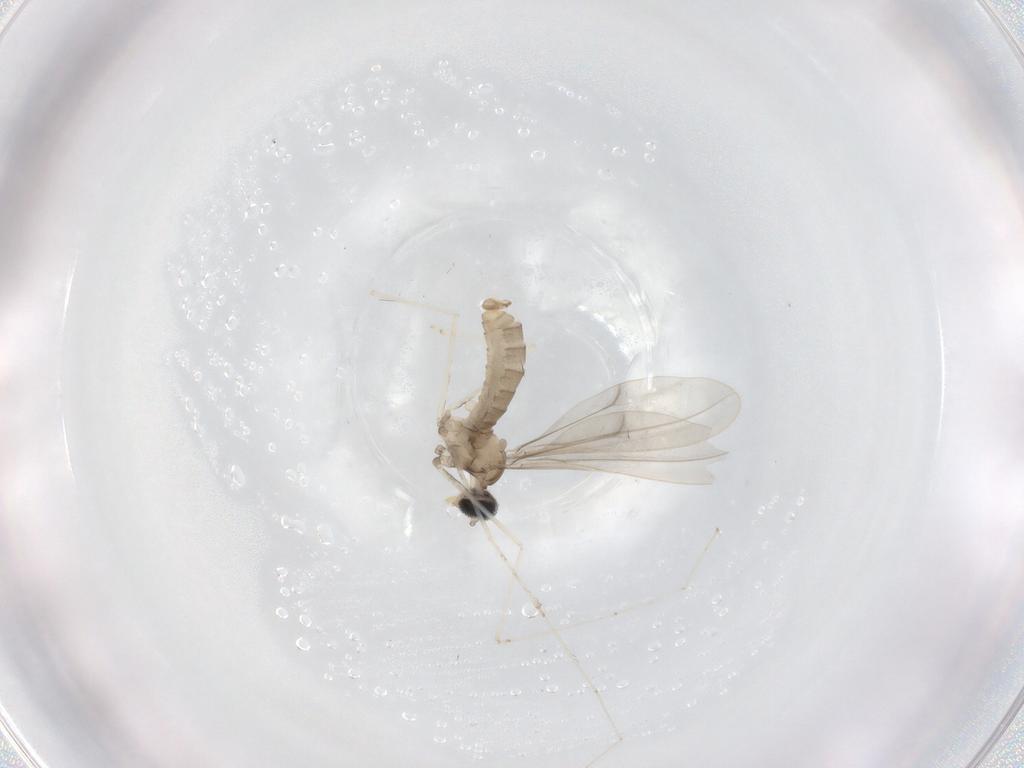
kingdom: Animalia
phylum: Arthropoda
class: Insecta
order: Diptera
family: Cecidomyiidae
